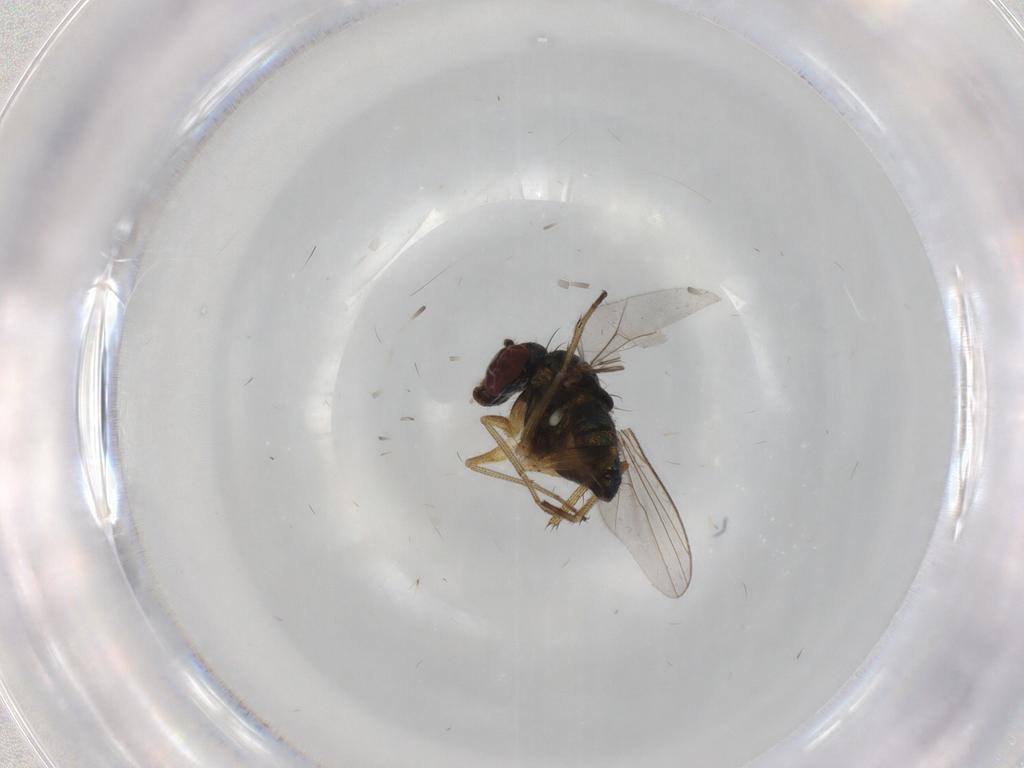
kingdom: Animalia
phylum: Arthropoda
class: Insecta
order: Diptera
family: Dolichopodidae
